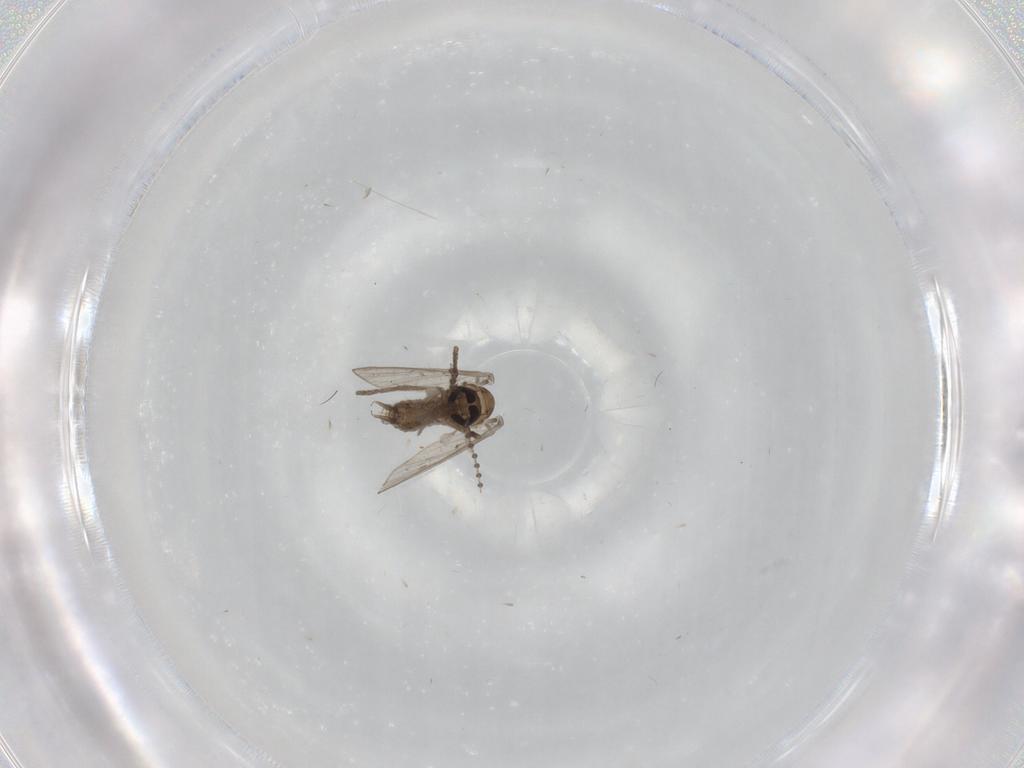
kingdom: Animalia
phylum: Arthropoda
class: Insecta
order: Diptera
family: Psychodidae
